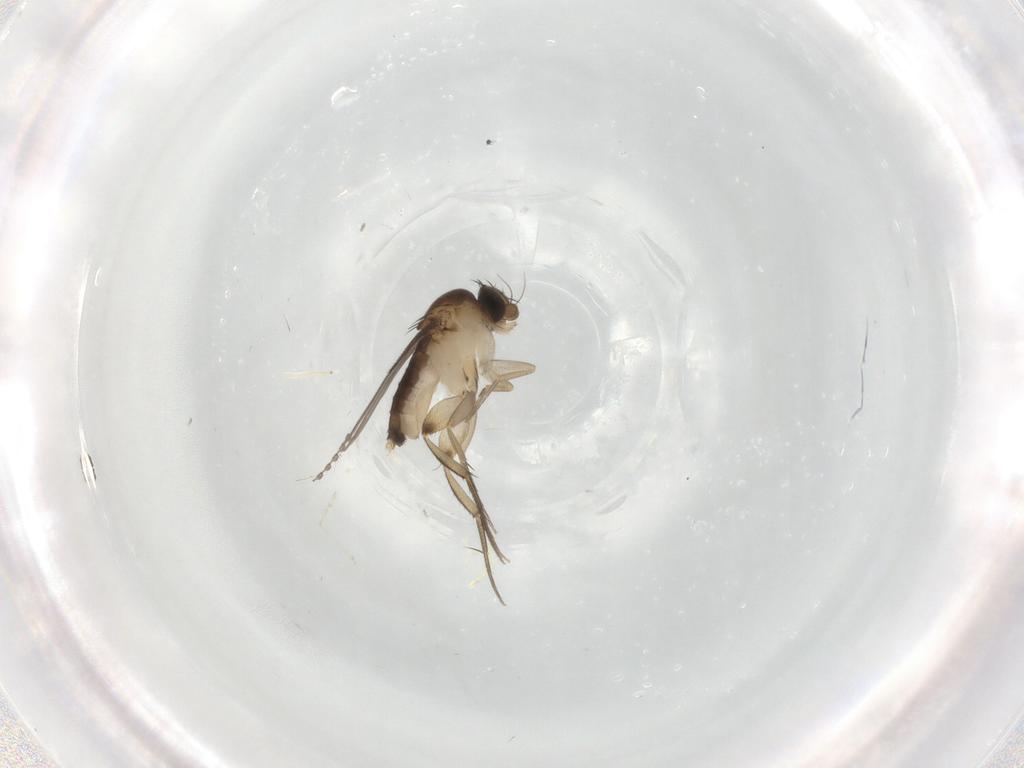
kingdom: Animalia
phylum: Arthropoda
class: Insecta
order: Diptera
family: Phoridae
